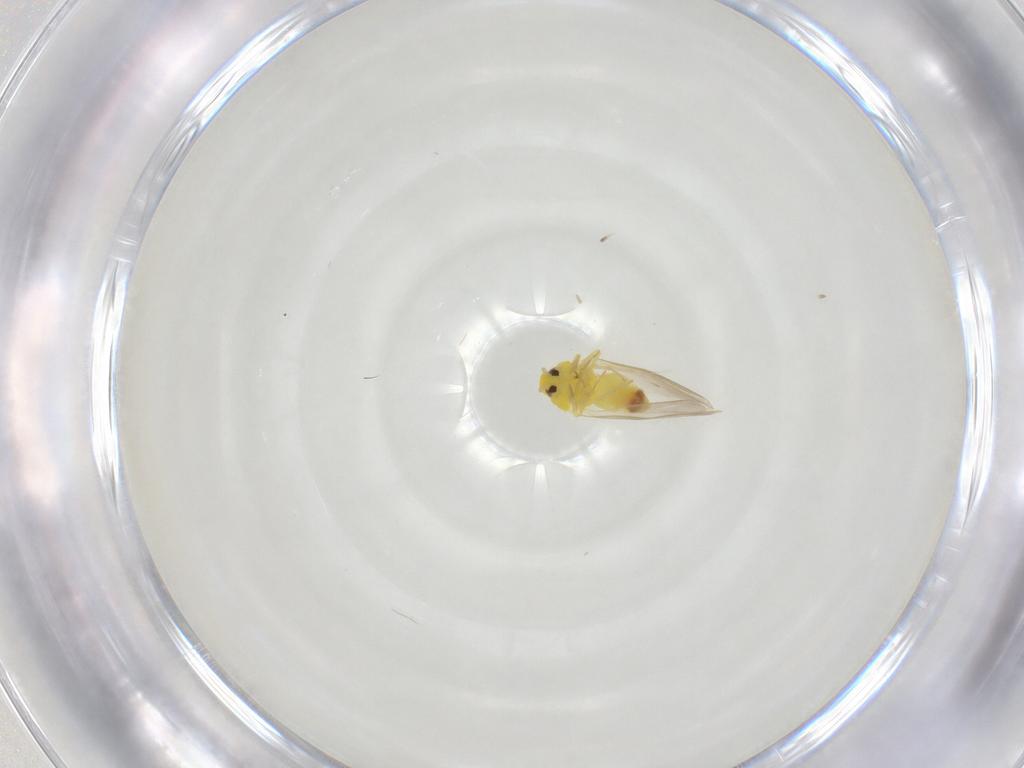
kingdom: Animalia
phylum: Arthropoda
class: Insecta
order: Hemiptera
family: Aleyrodidae
